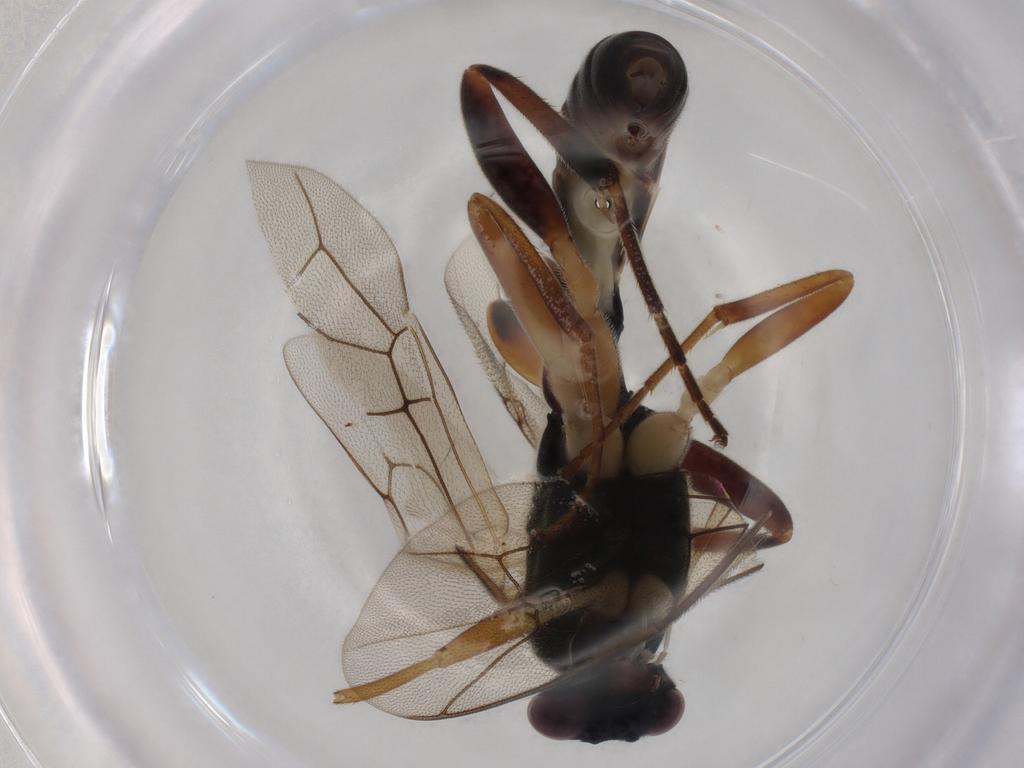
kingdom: Animalia
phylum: Arthropoda
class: Insecta
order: Hymenoptera
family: Ichneumonidae
